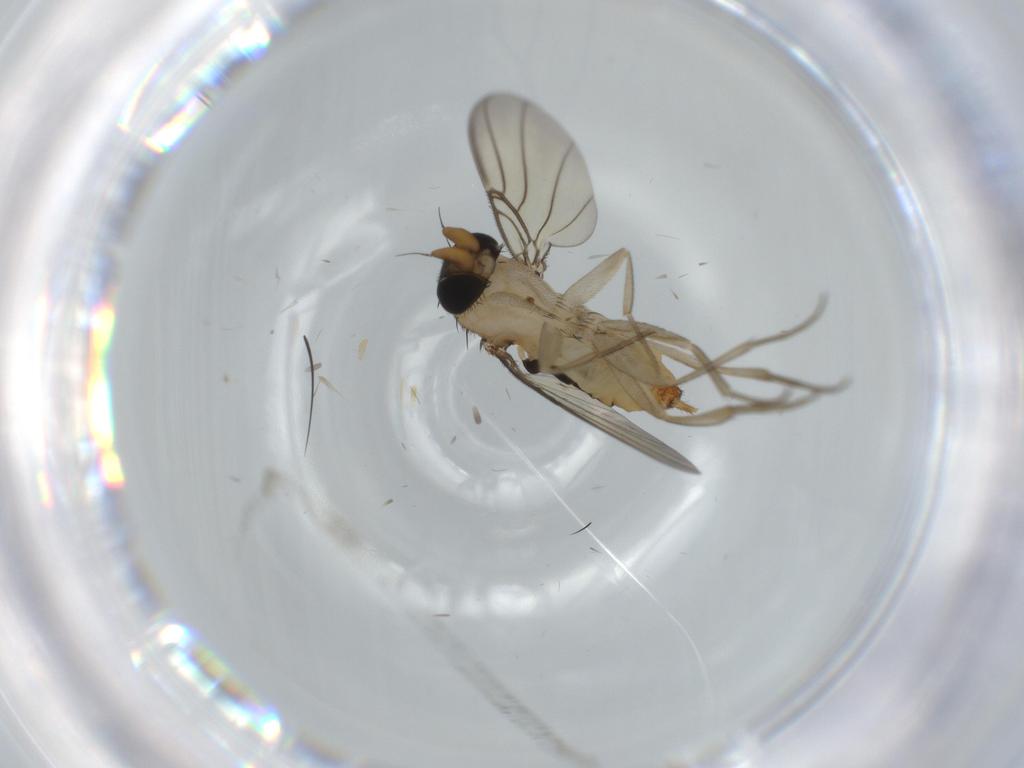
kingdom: Animalia
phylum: Arthropoda
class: Insecta
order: Diptera
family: Phoridae
